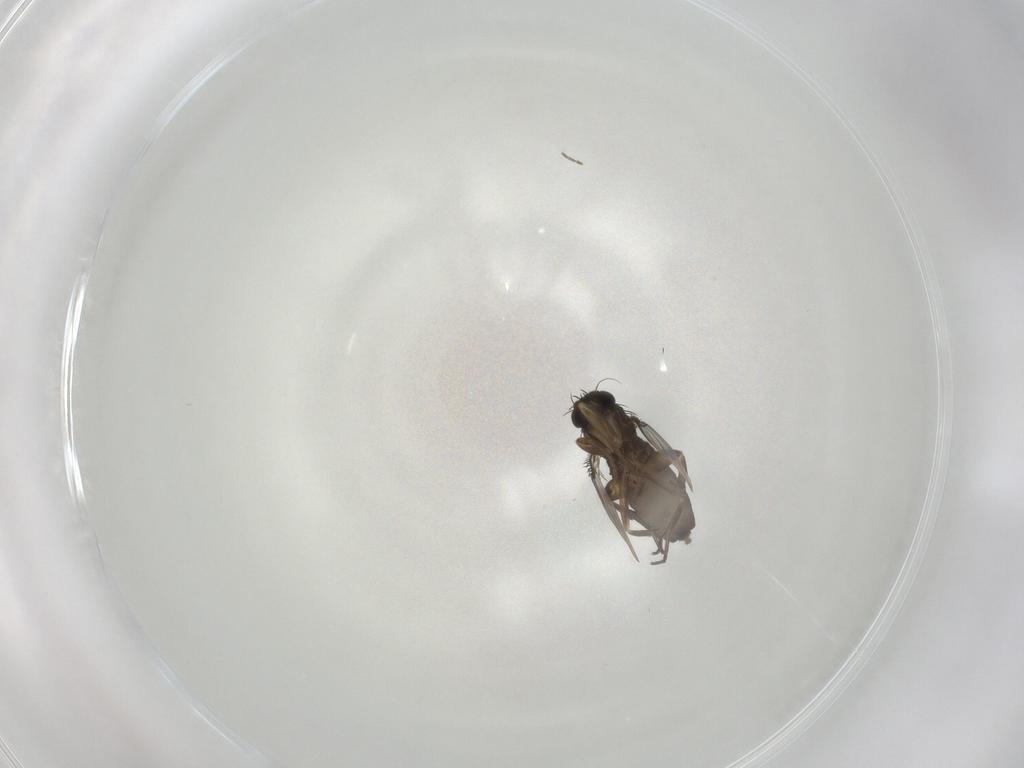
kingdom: Animalia
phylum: Arthropoda
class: Insecta
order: Diptera
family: Phoridae
